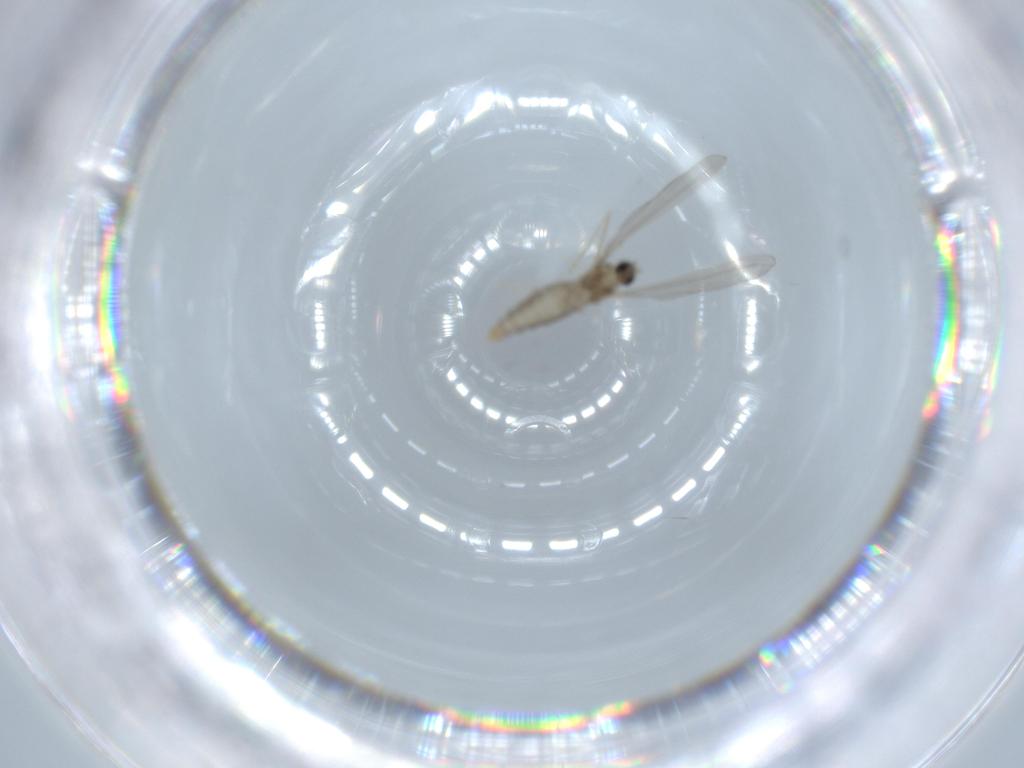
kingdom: Animalia
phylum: Arthropoda
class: Insecta
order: Diptera
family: Cecidomyiidae
